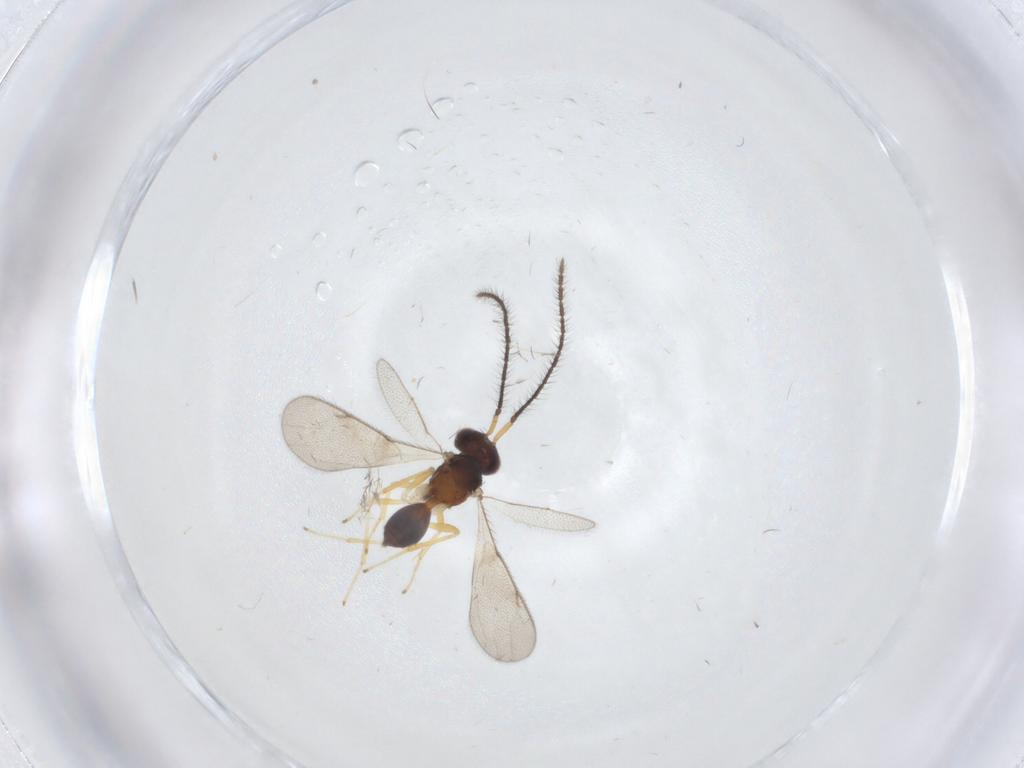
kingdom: Animalia
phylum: Arthropoda
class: Insecta
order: Hymenoptera
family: Diparidae
